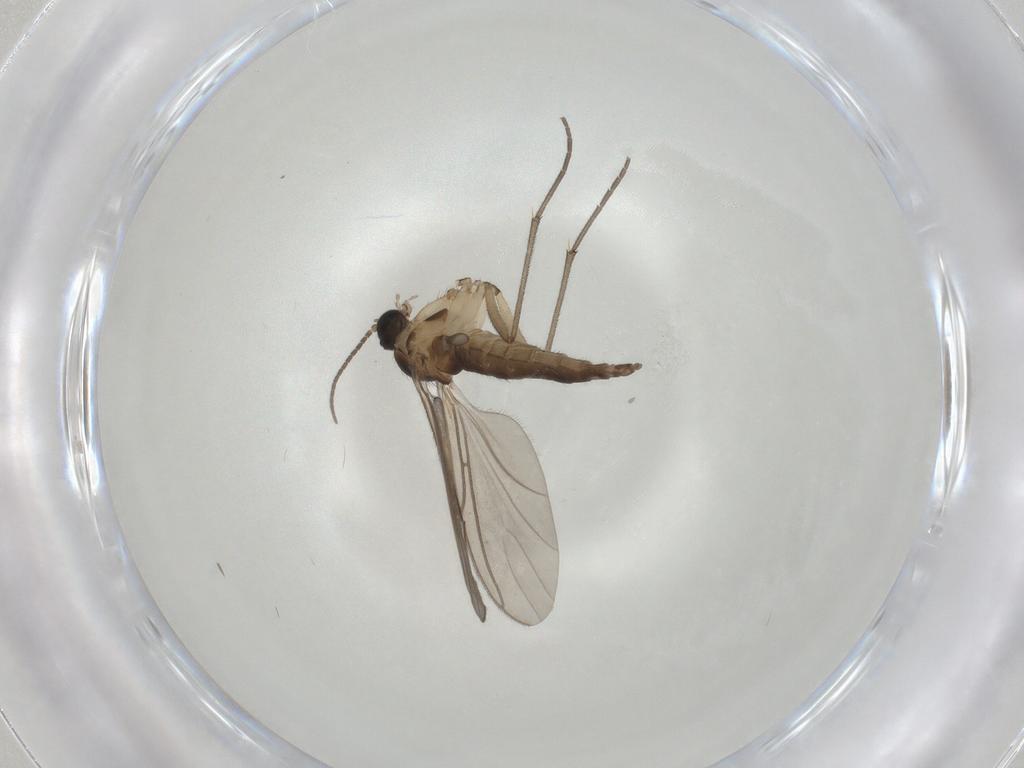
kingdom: Animalia
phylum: Arthropoda
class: Insecta
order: Diptera
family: Sciaridae
